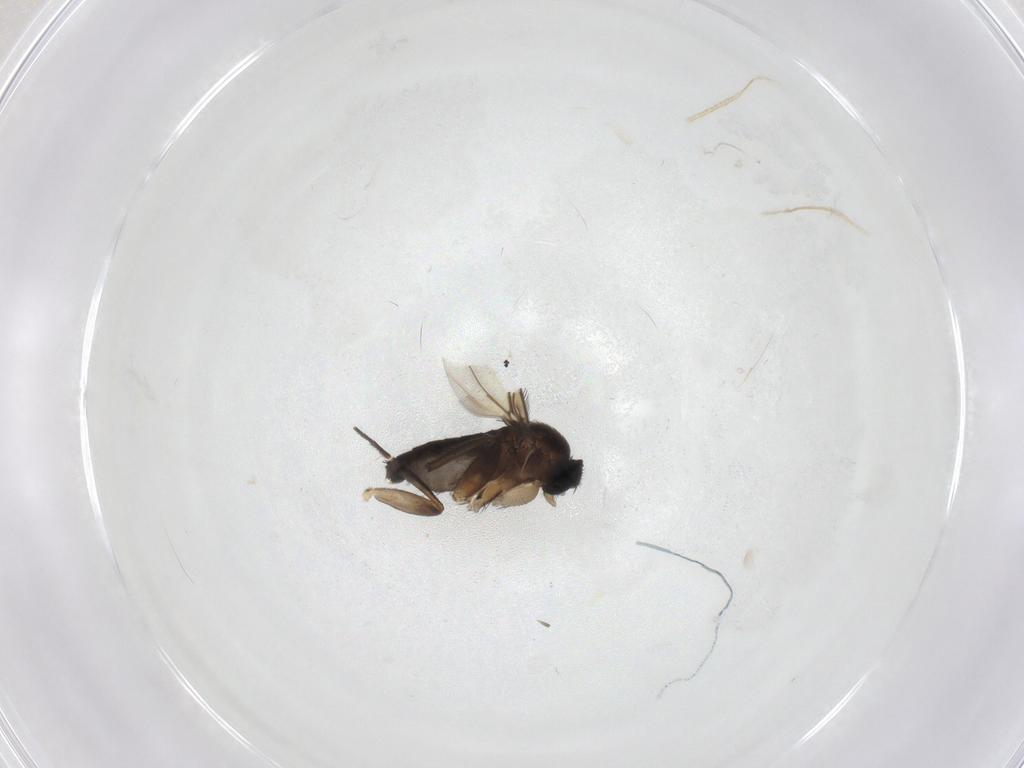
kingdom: Animalia
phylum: Arthropoda
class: Insecta
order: Diptera
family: Phoridae
